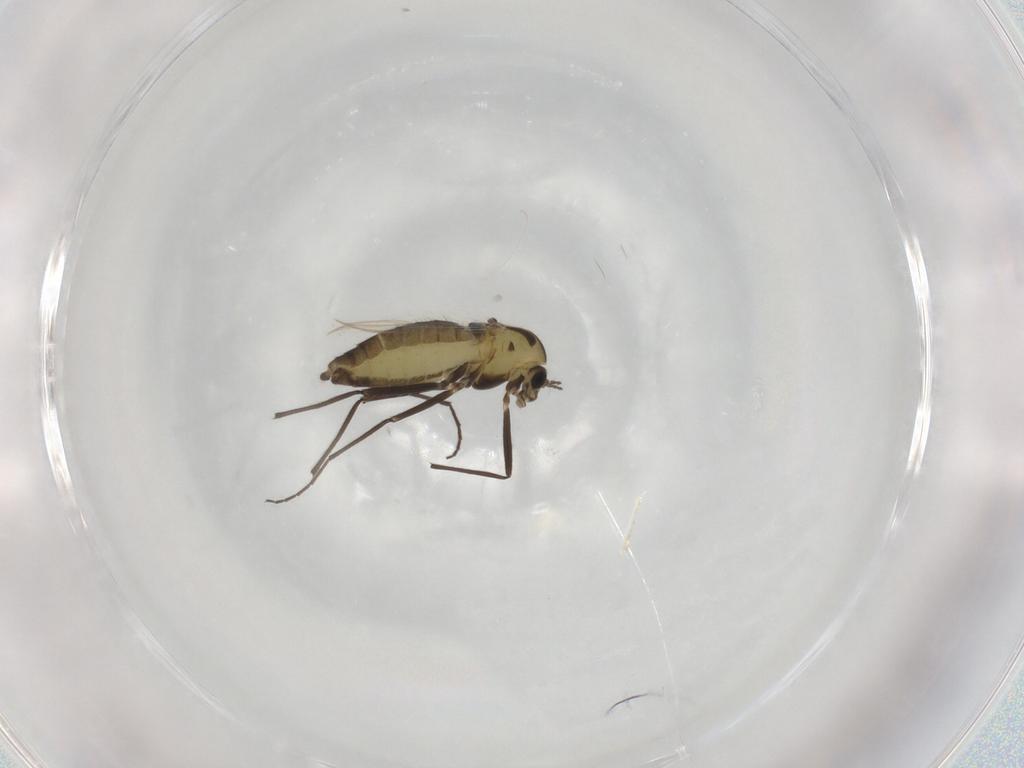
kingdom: Animalia
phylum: Arthropoda
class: Insecta
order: Diptera
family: Chironomidae
